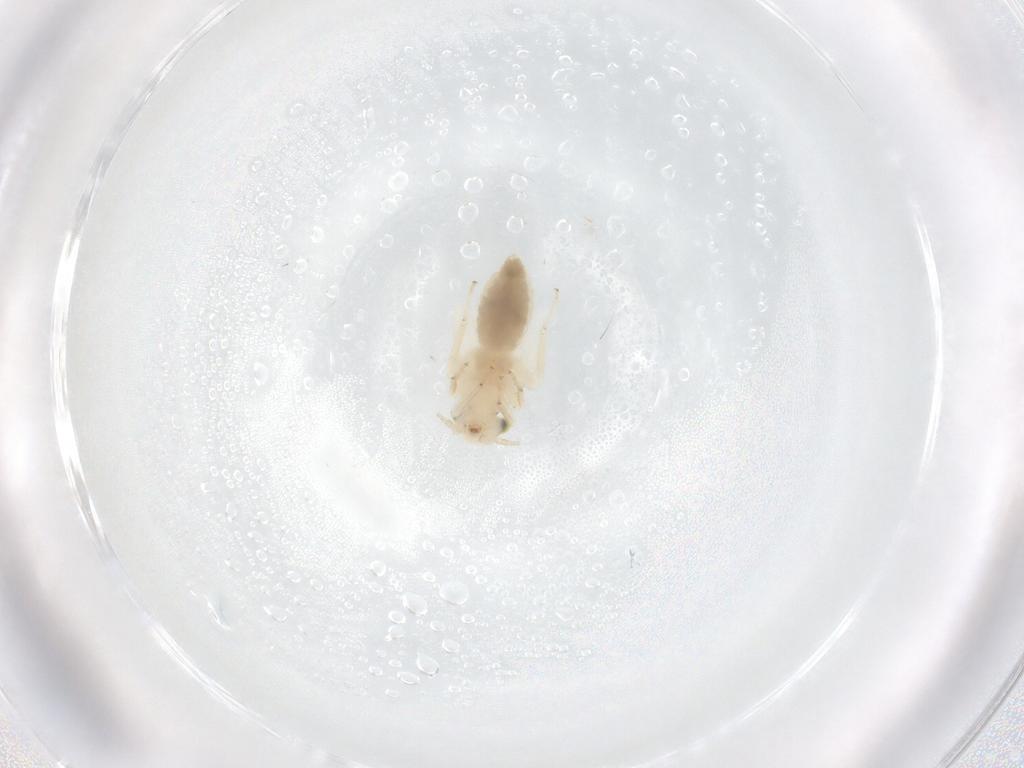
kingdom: Animalia
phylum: Arthropoda
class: Insecta
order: Psocodea
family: Lepidopsocidae
